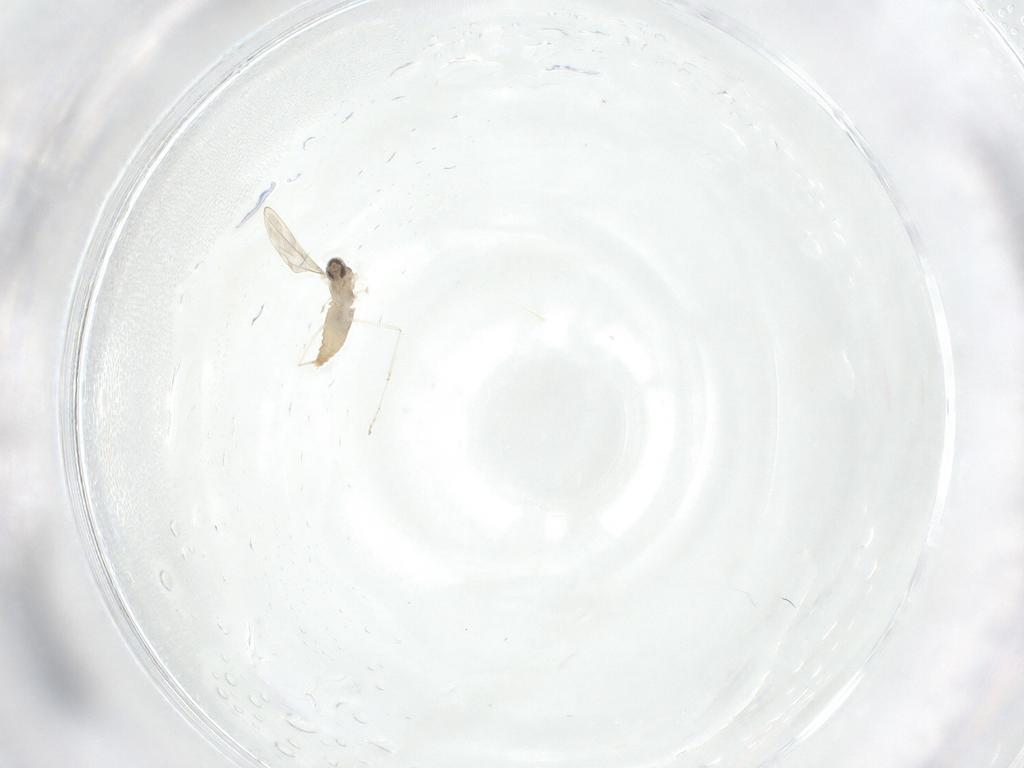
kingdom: Animalia
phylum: Arthropoda
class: Insecta
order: Diptera
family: Cecidomyiidae
